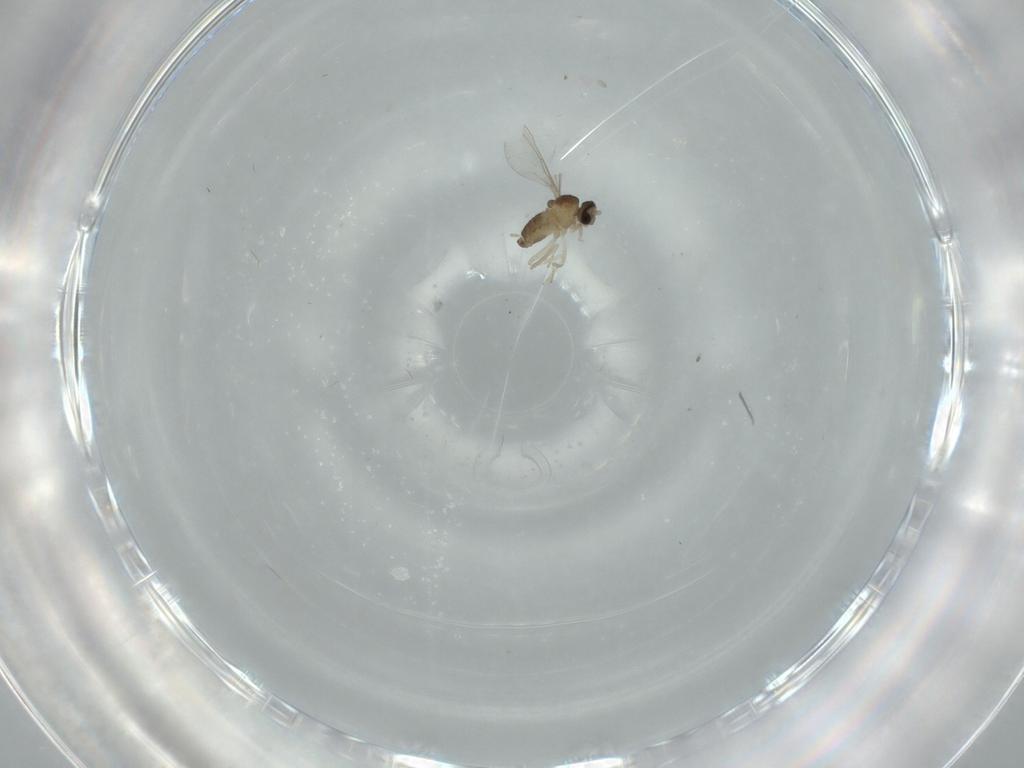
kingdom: Animalia
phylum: Arthropoda
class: Insecta
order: Diptera
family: Cecidomyiidae
